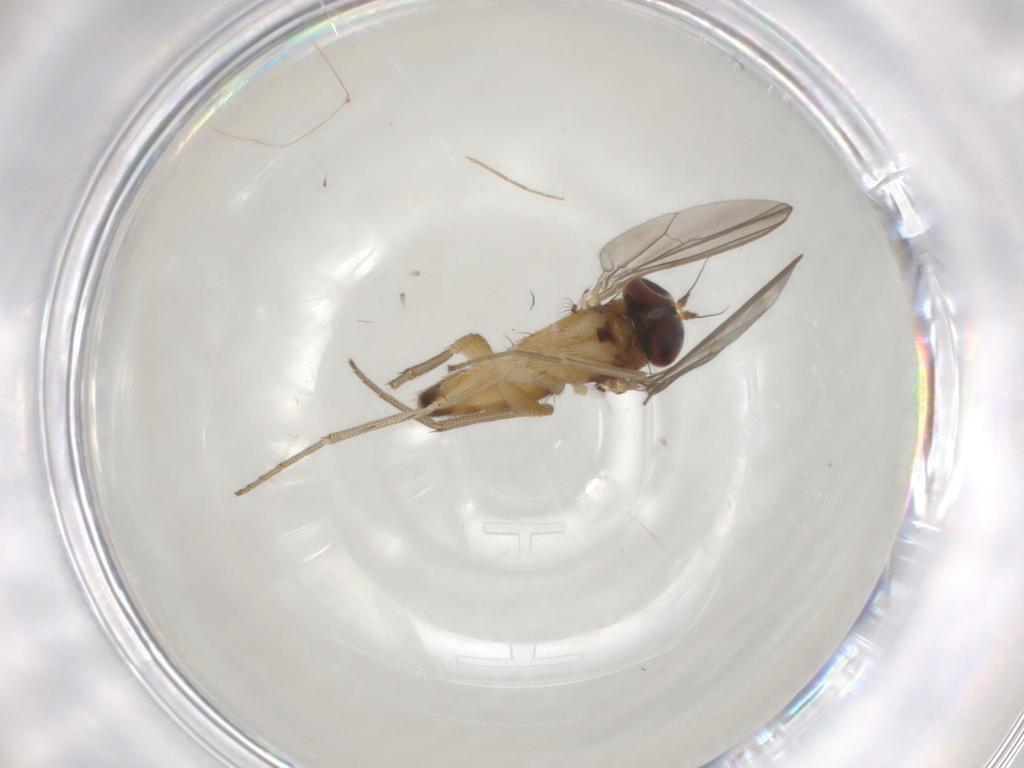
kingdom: Animalia
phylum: Arthropoda
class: Insecta
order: Diptera
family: Dolichopodidae
